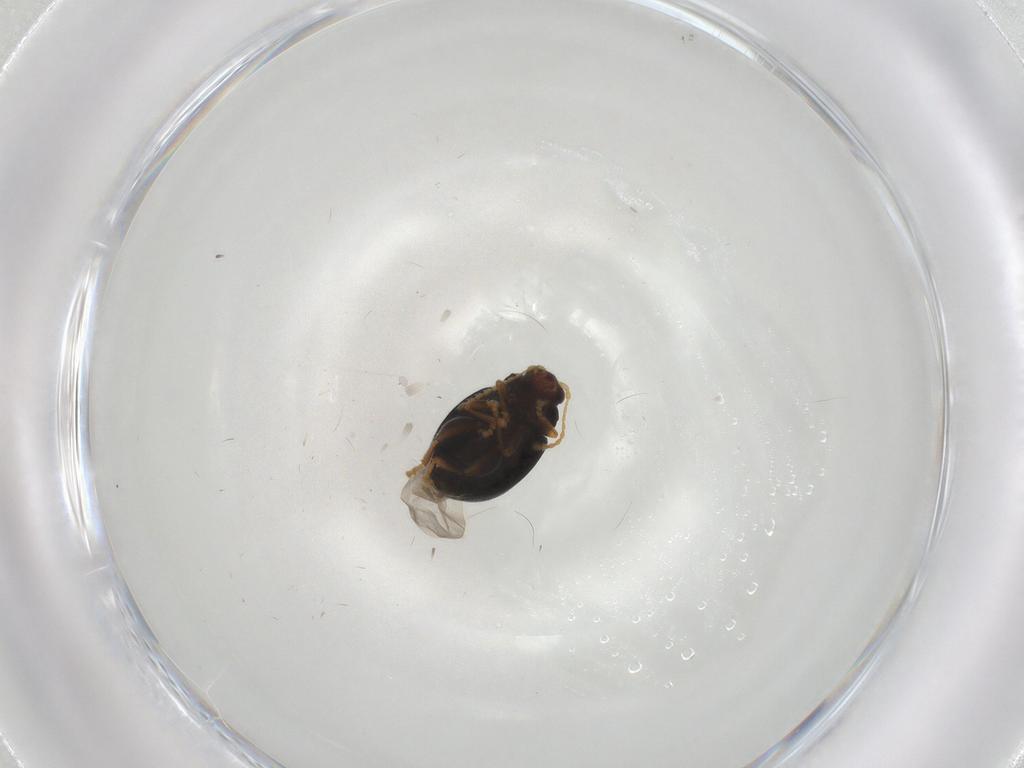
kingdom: Animalia
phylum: Arthropoda
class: Insecta
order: Coleoptera
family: Chrysomelidae
